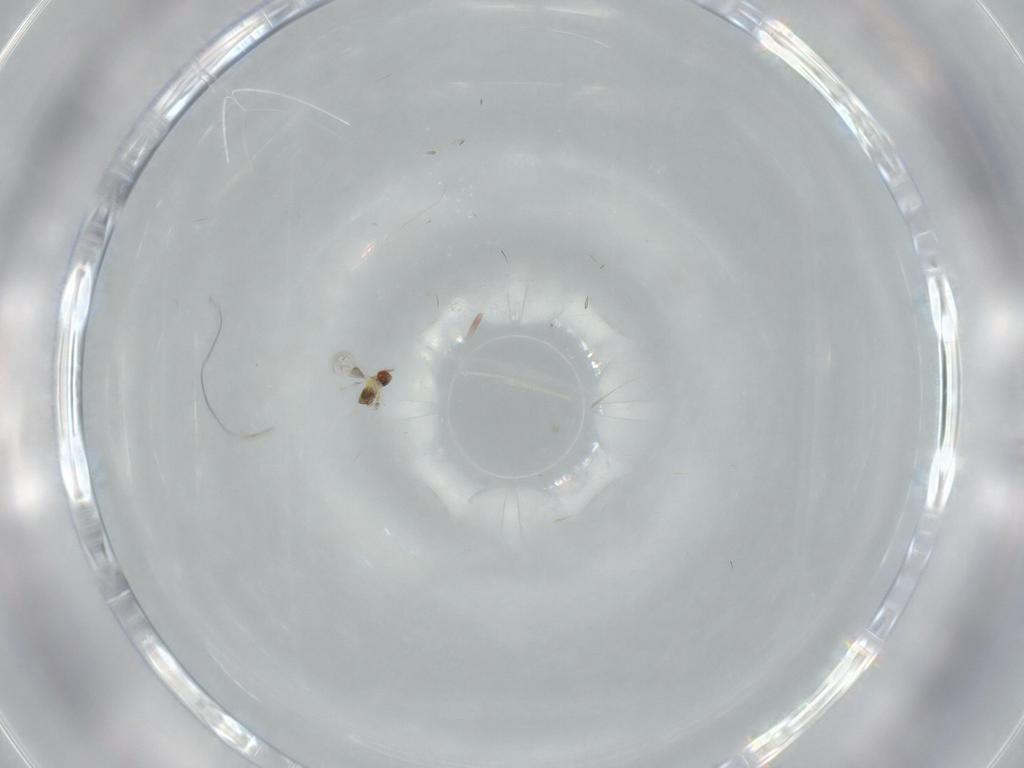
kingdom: Animalia
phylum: Arthropoda
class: Insecta
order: Hymenoptera
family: Trichogrammatidae
